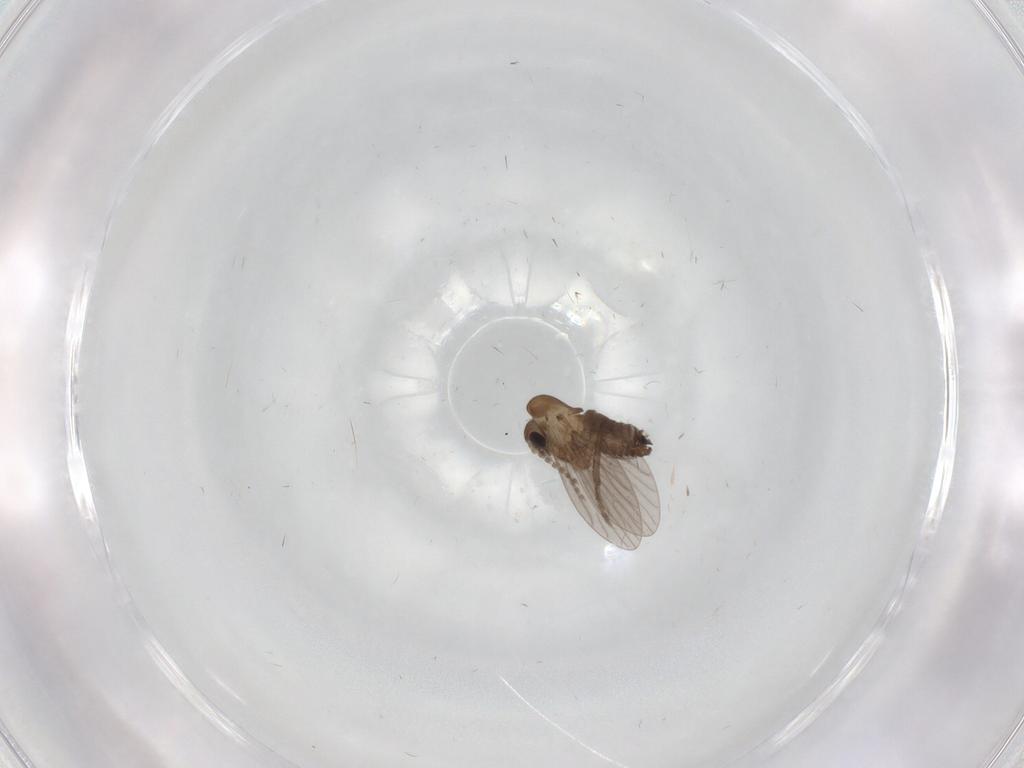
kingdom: Animalia
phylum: Arthropoda
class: Insecta
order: Diptera
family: Phoridae
